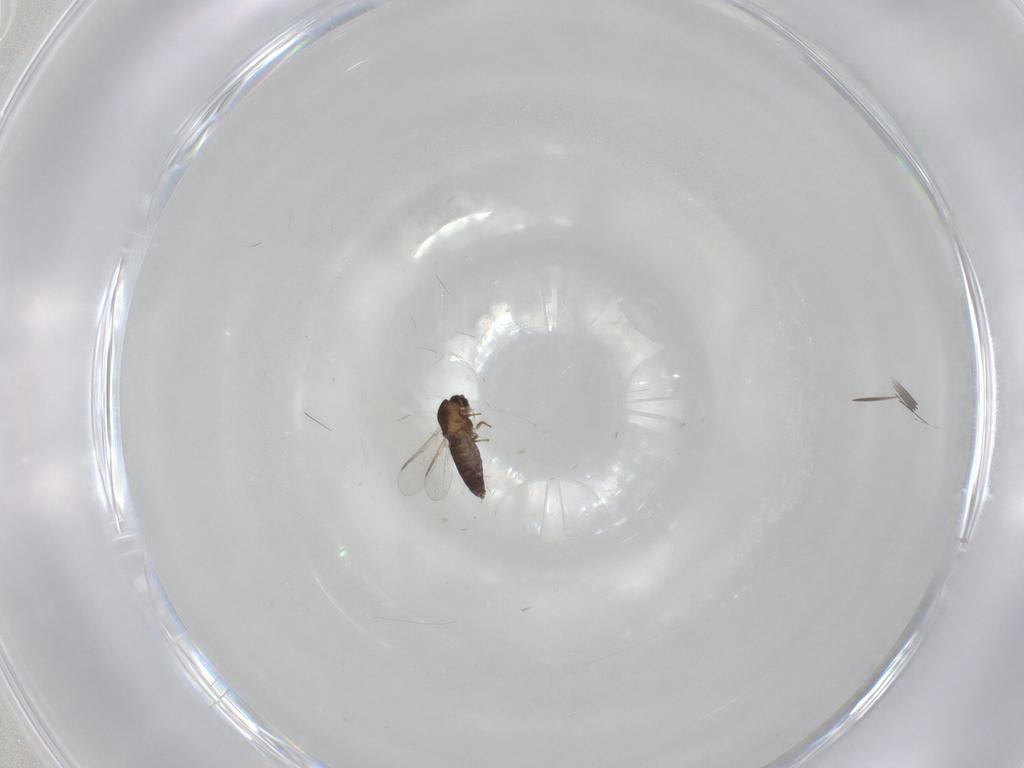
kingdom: Animalia
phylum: Arthropoda
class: Insecta
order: Diptera
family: Chironomidae
